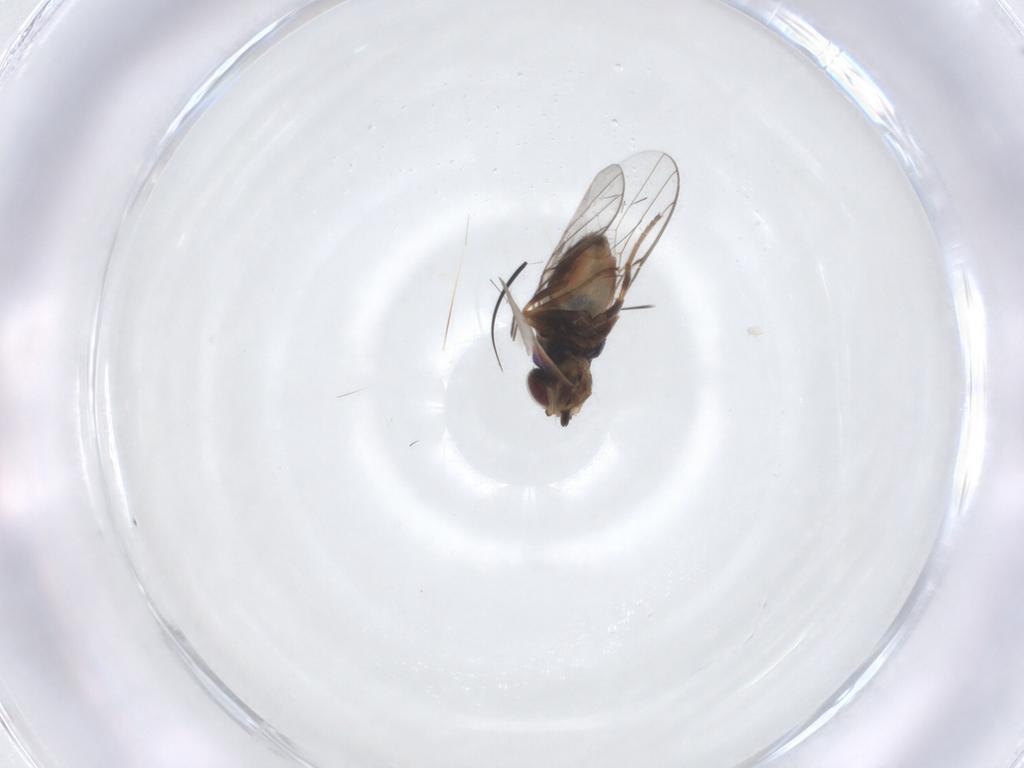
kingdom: Animalia
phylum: Arthropoda
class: Insecta
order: Diptera
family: Chloropidae
